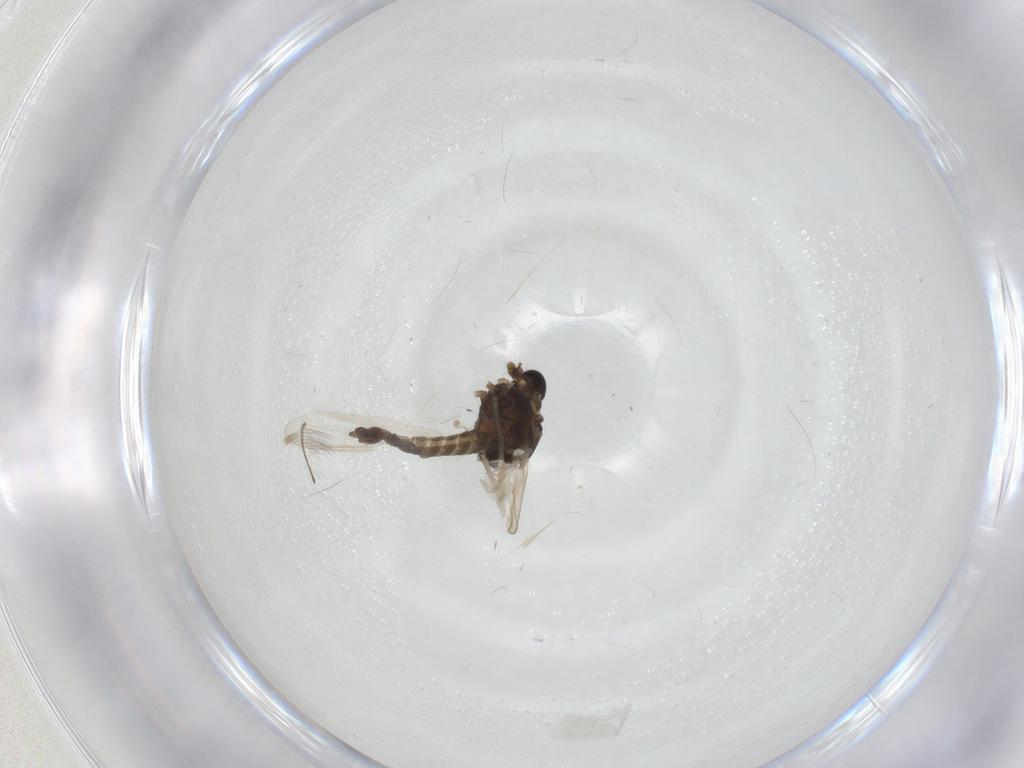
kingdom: Animalia
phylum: Arthropoda
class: Insecta
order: Diptera
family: Chironomidae
